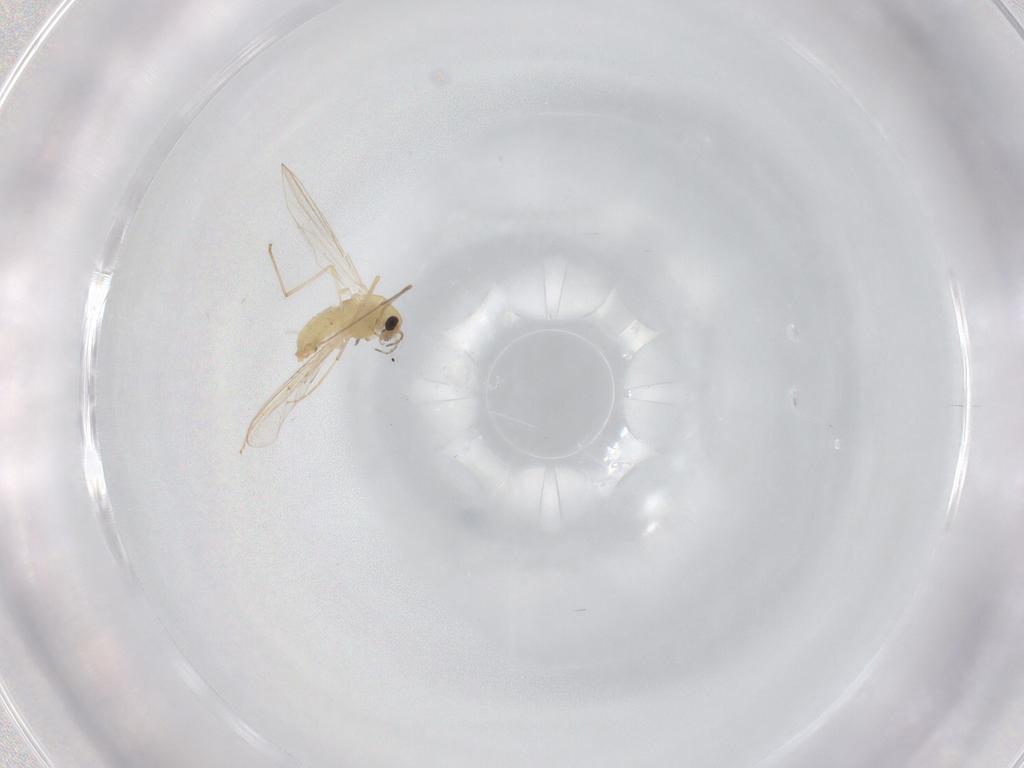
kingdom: Animalia
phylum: Arthropoda
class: Insecta
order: Diptera
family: Chironomidae
